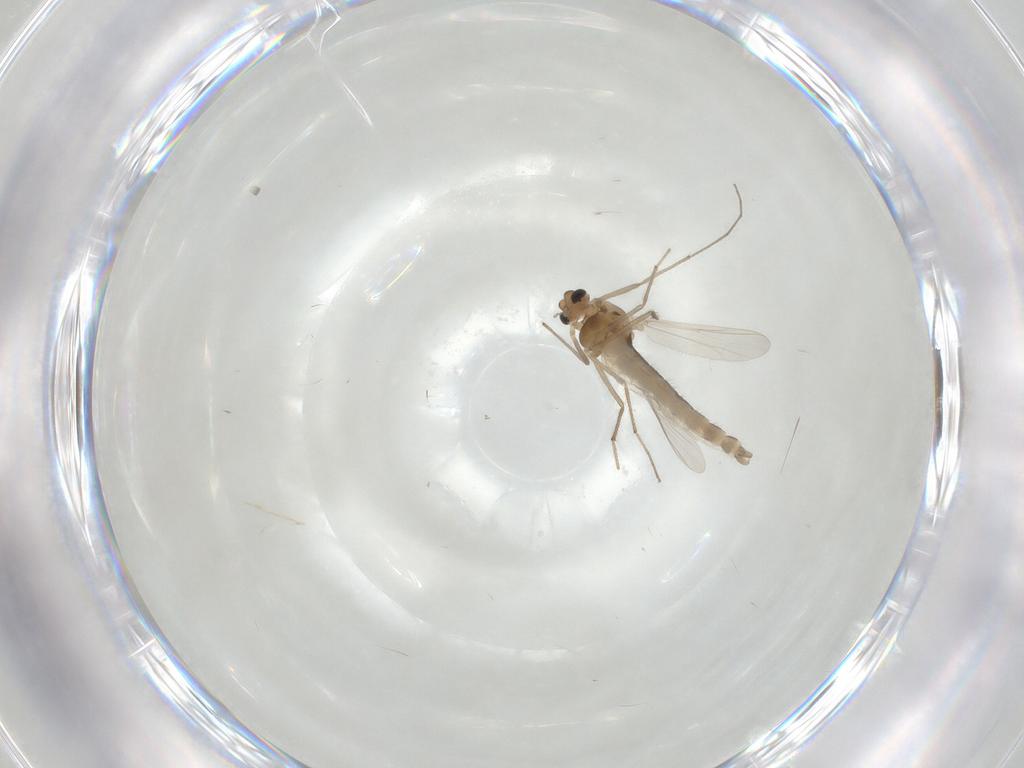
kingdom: Animalia
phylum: Arthropoda
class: Insecta
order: Diptera
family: Chironomidae
